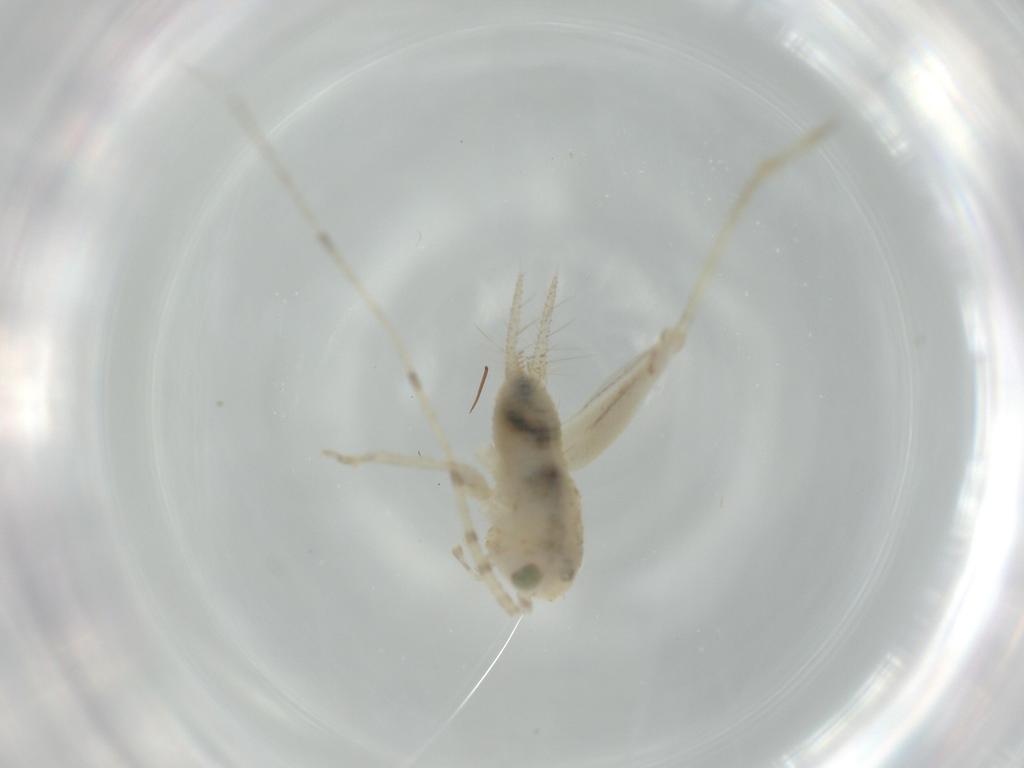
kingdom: Animalia
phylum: Arthropoda
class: Insecta
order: Orthoptera
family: Trigonidiidae
